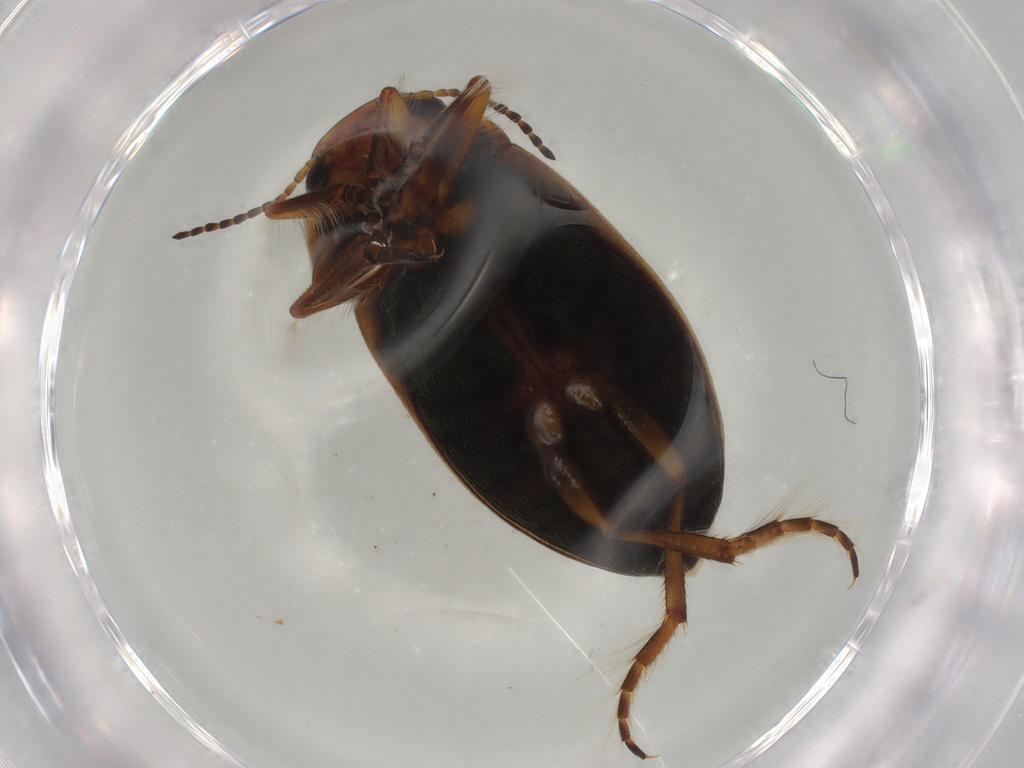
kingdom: Animalia
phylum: Arthropoda
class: Insecta
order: Coleoptera
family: Dytiscidae
